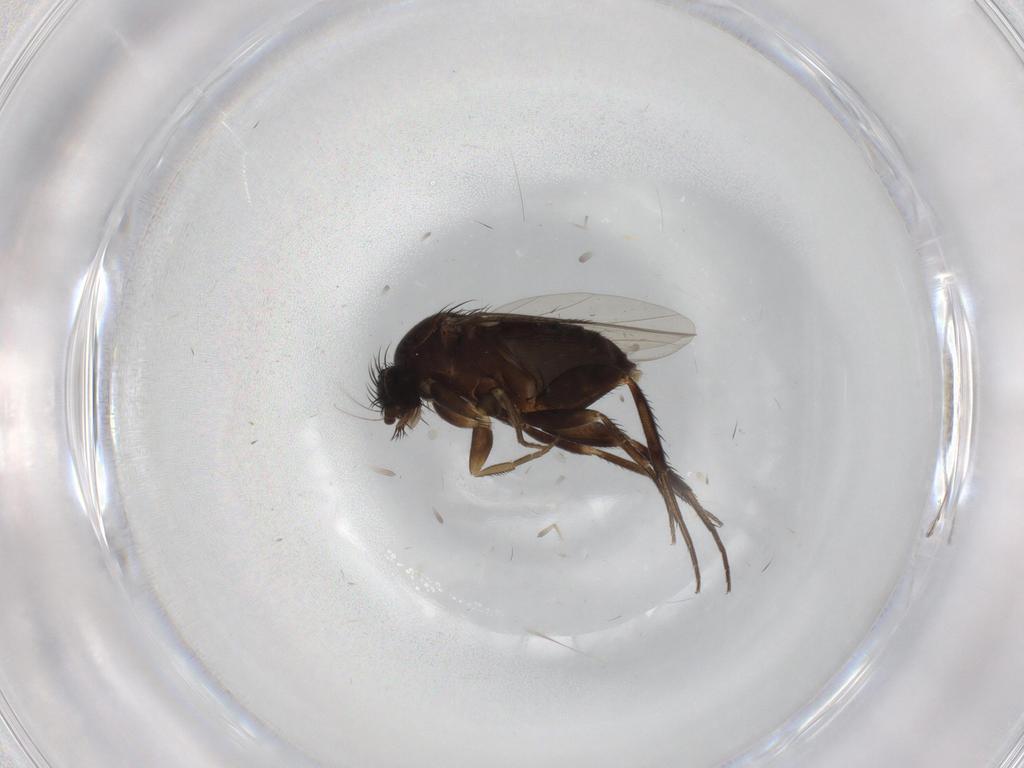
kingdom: Animalia
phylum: Arthropoda
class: Insecta
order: Diptera
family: Phoridae
